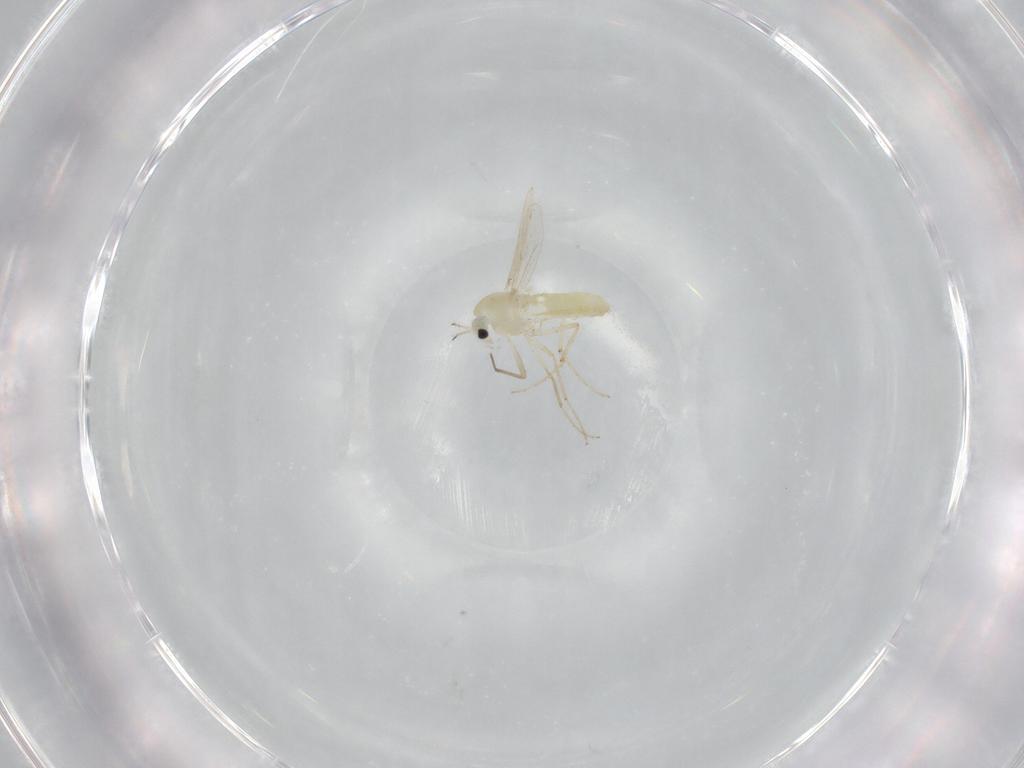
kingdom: Animalia
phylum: Arthropoda
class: Insecta
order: Diptera
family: Chironomidae
